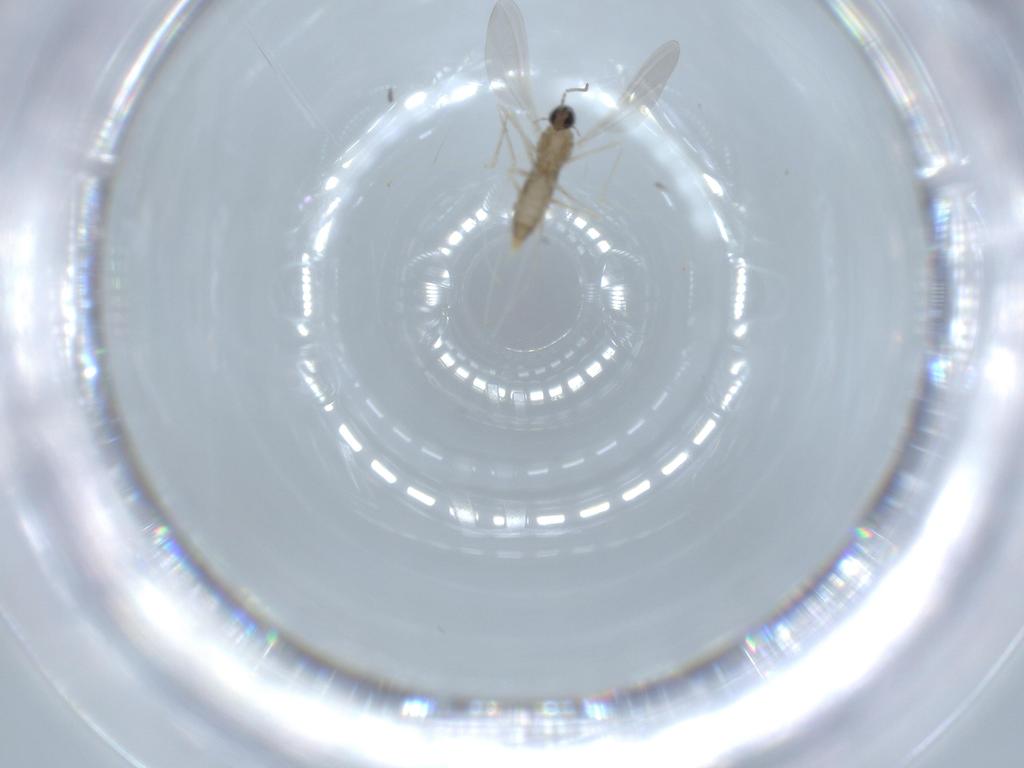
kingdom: Animalia
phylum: Arthropoda
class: Insecta
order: Diptera
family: Cecidomyiidae
